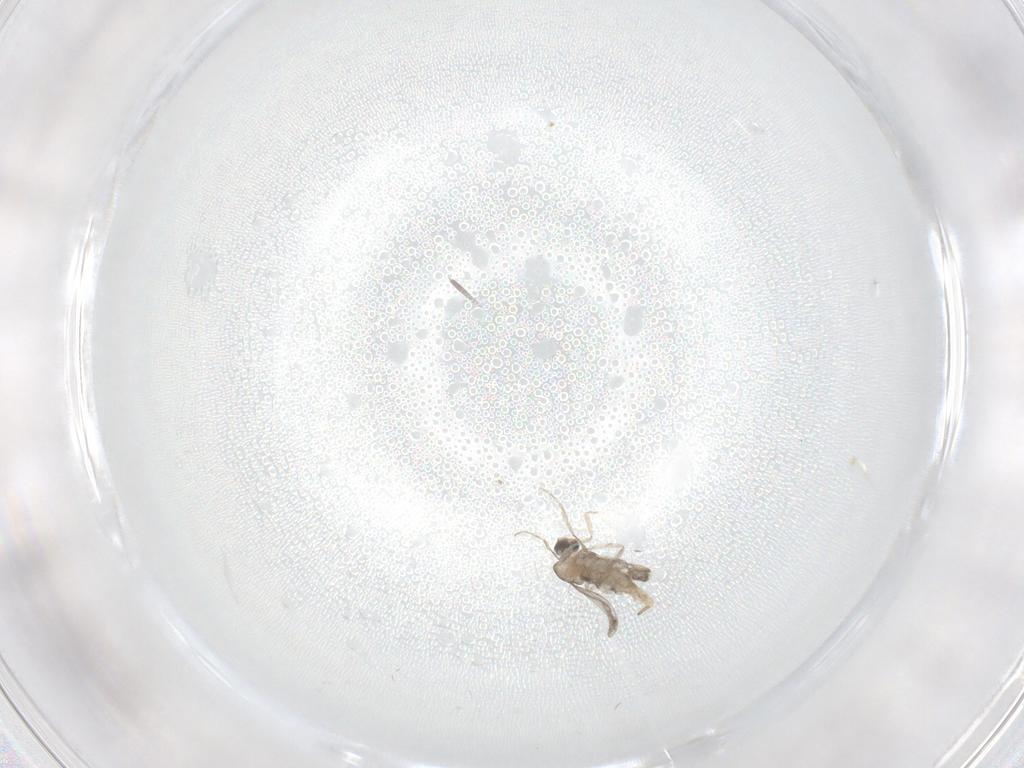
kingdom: Animalia
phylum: Arthropoda
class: Insecta
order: Diptera
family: Cecidomyiidae
